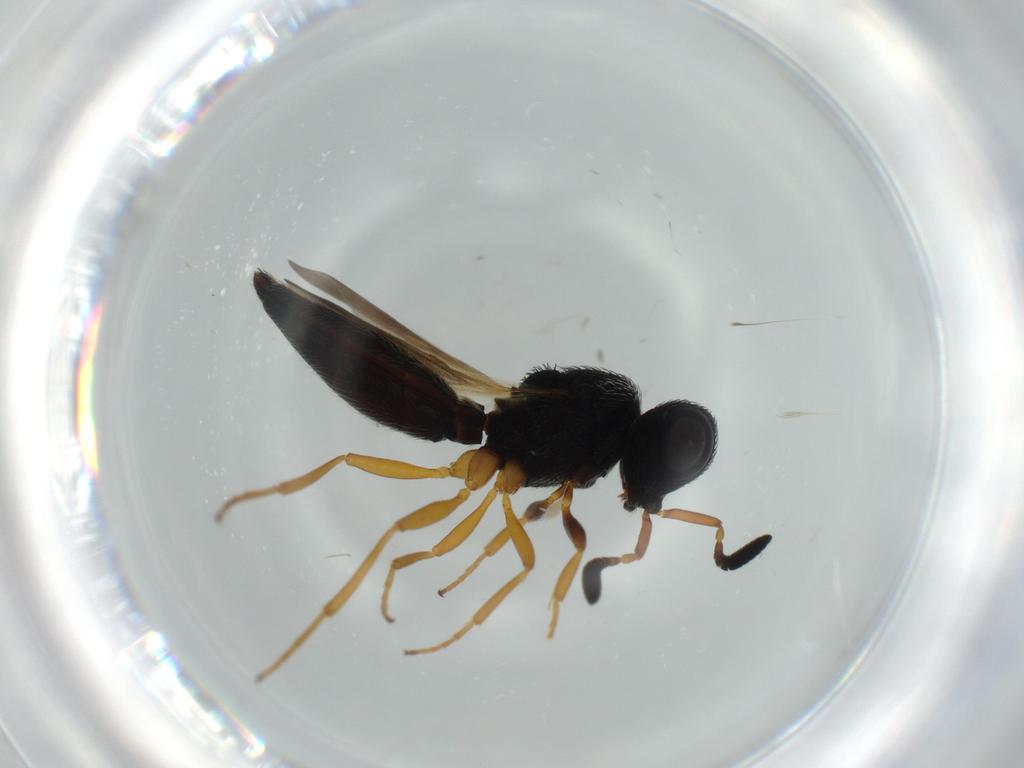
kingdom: Animalia
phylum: Arthropoda
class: Insecta
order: Hymenoptera
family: Scelionidae
